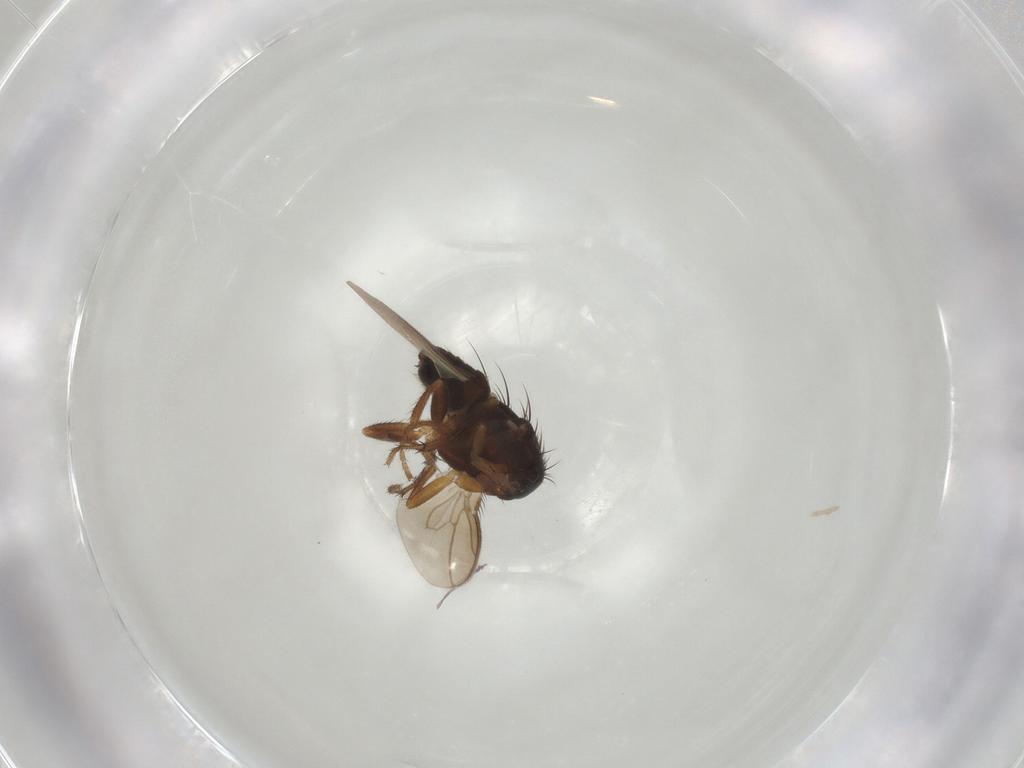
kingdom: Animalia
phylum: Arthropoda
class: Insecta
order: Diptera
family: Sphaeroceridae
